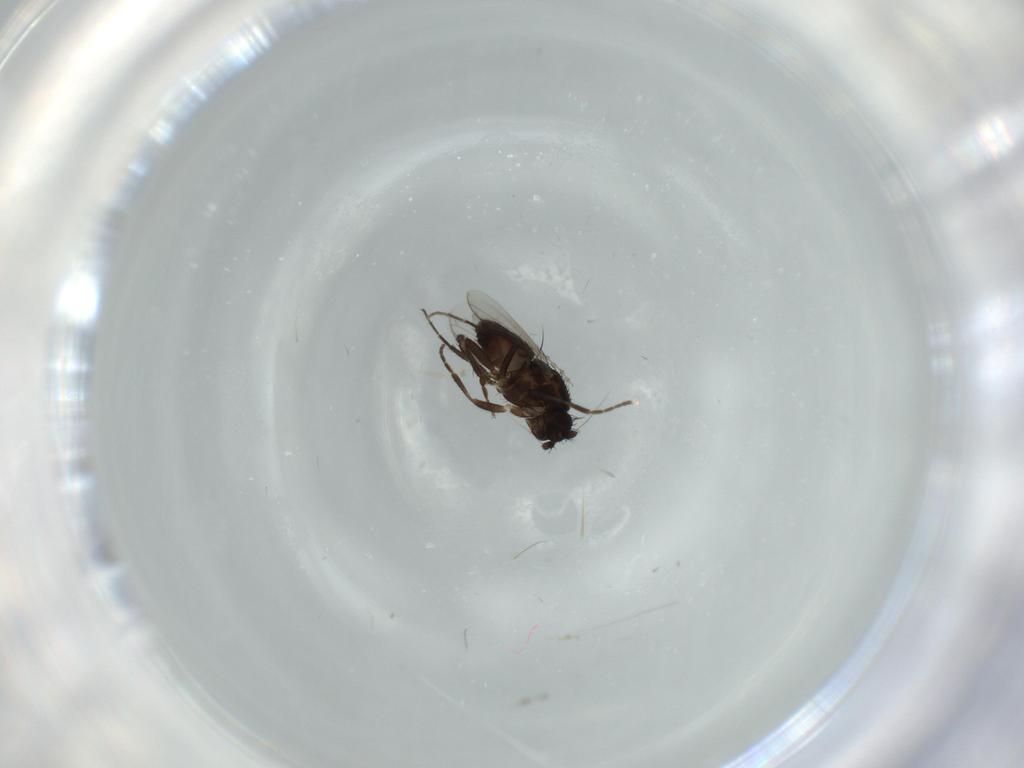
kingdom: Animalia
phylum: Arthropoda
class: Insecta
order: Diptera
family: Sphaeroceridae
